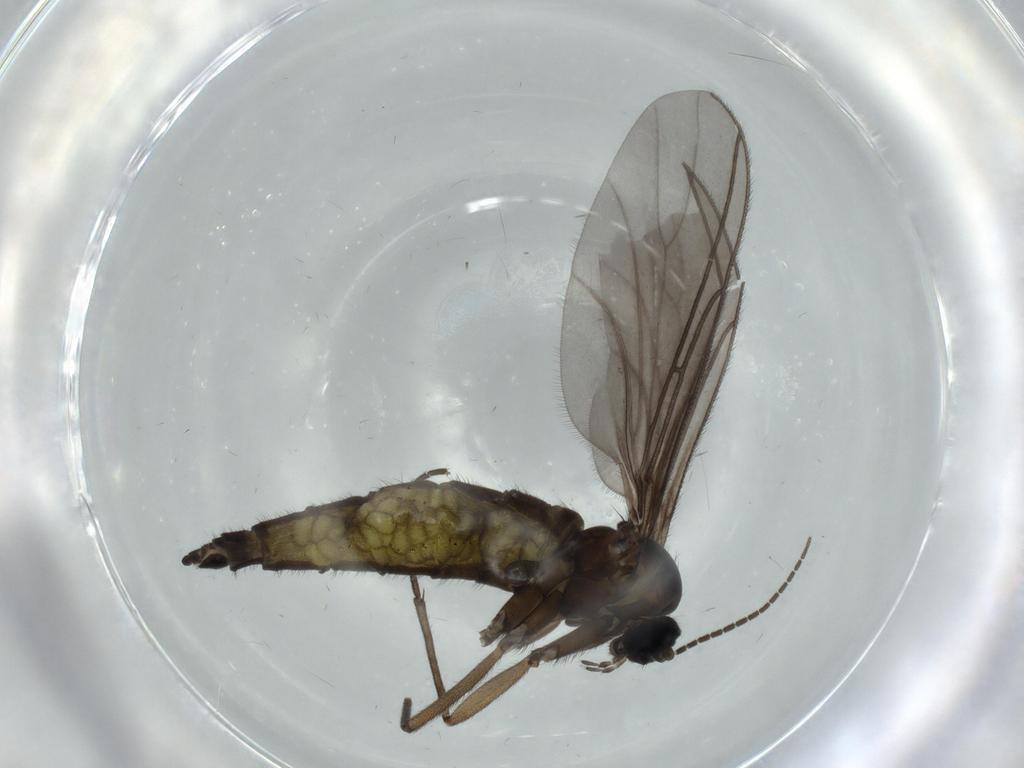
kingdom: Animalia
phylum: Arthropoda
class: Insecta
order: Diptera
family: Sciaridae
